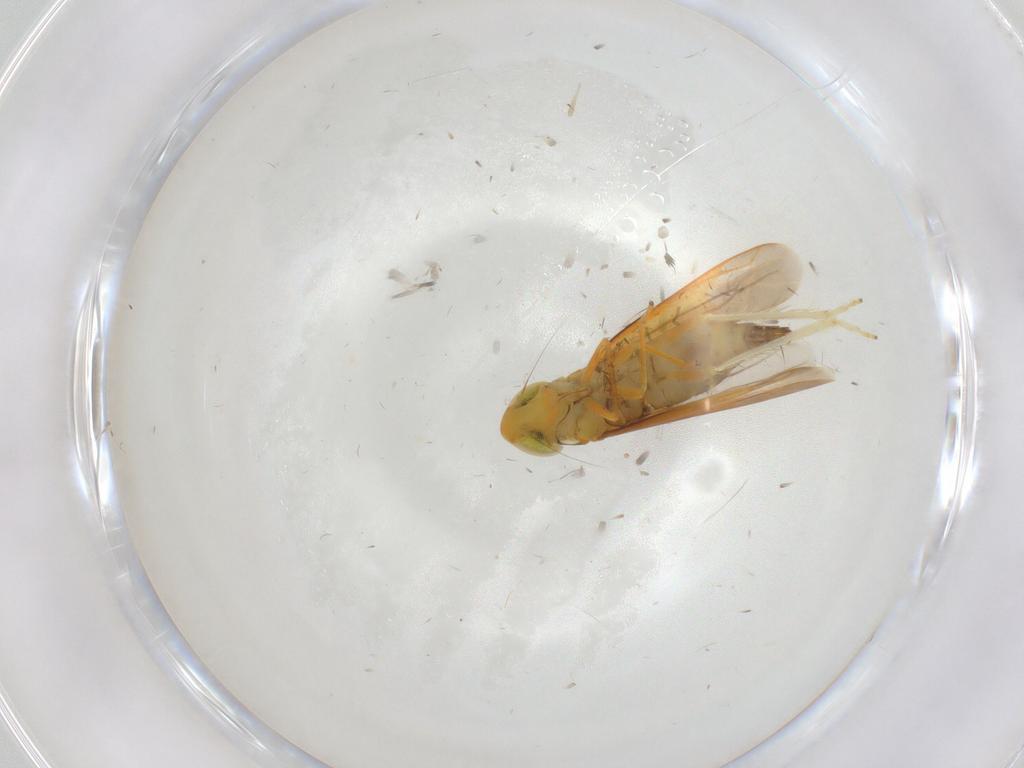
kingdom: Animalia
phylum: Arthropoda
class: Insecta
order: Hemiptera
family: Cicadellidae
